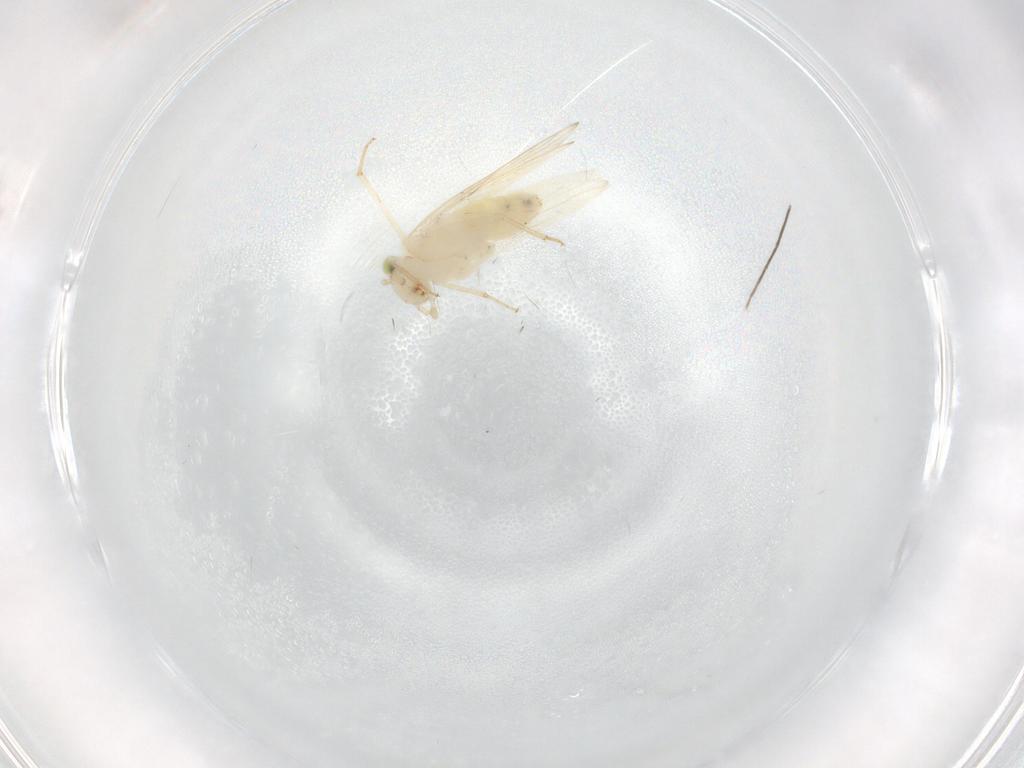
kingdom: Animalia
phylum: Arthropoda
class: Insecta
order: Psocodea
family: Lepidopsocidae
